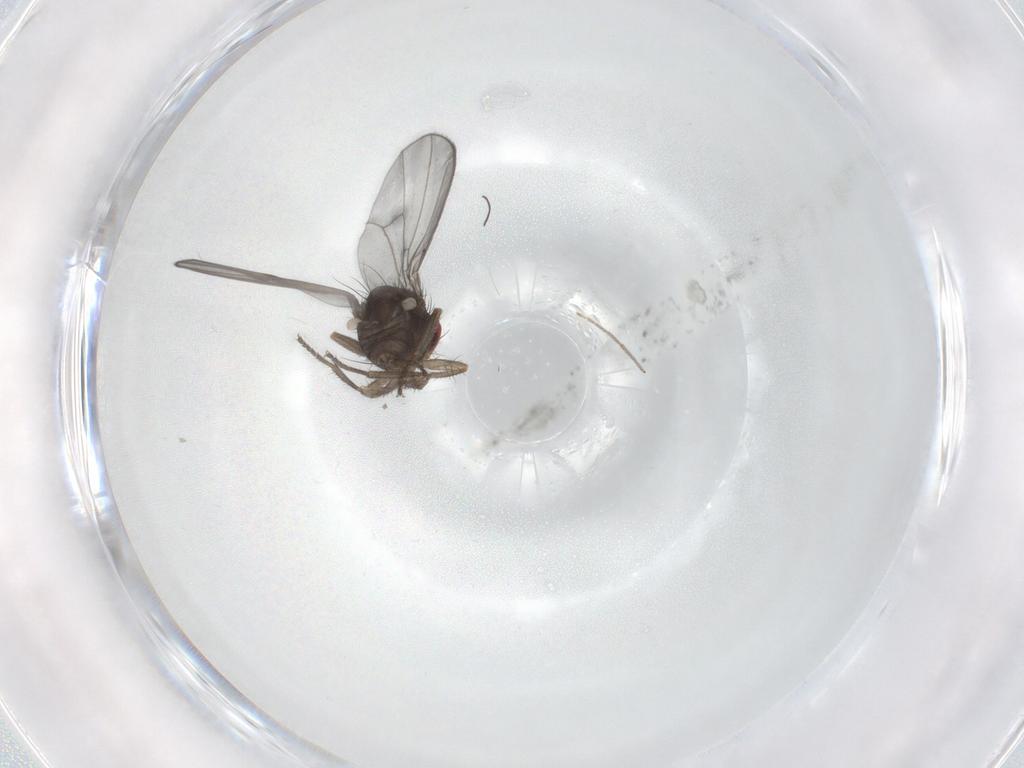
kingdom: Animalia
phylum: Arthropoda
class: Insecta
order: Diptera
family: Drosophilidae
